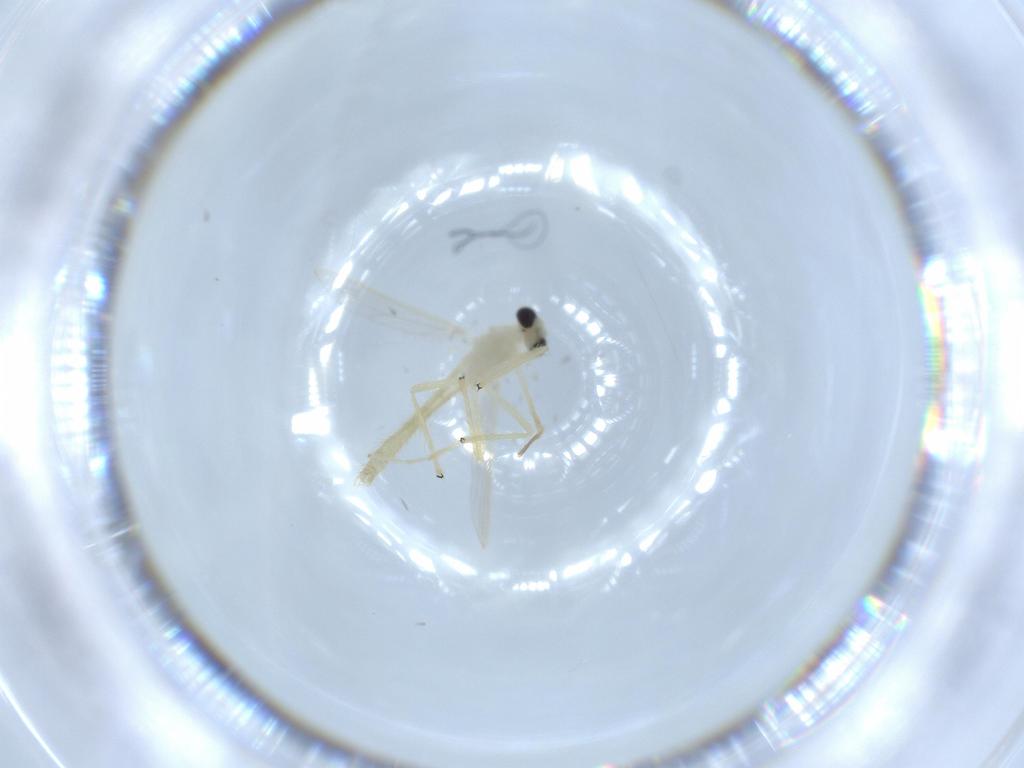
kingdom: Animalia
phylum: Arthropoda
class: Insecta
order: Diptera
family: Chironomidae
